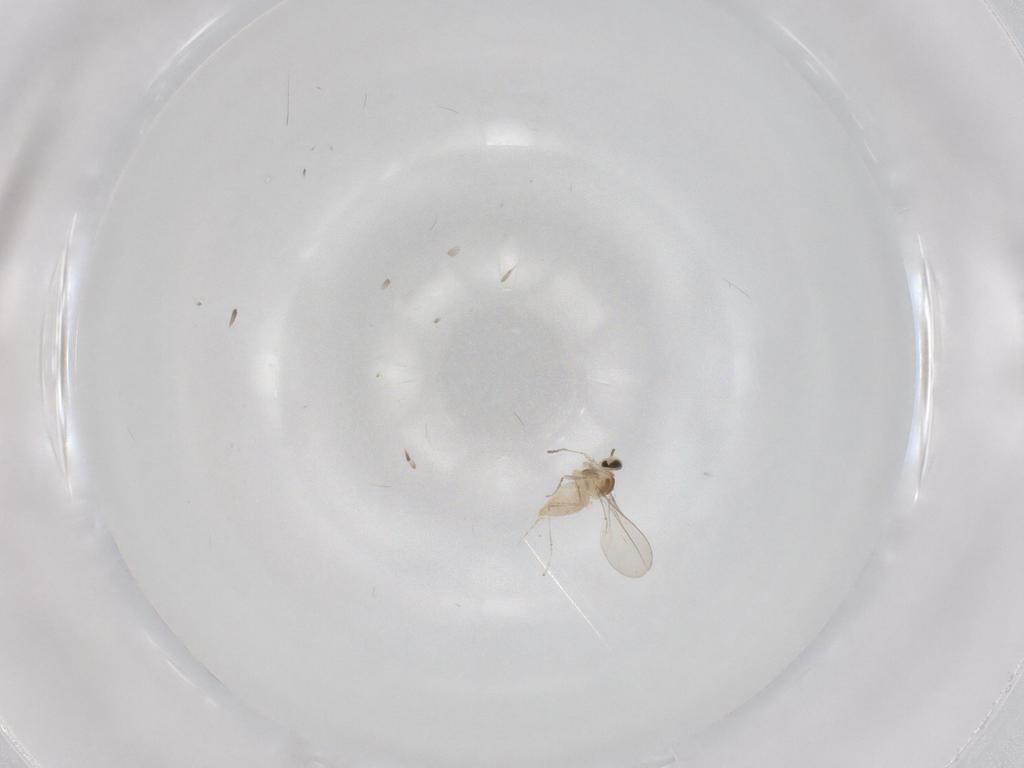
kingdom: Animalia
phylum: Arthropoda
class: Insecta
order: Diptera
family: Cecidomyiidae
